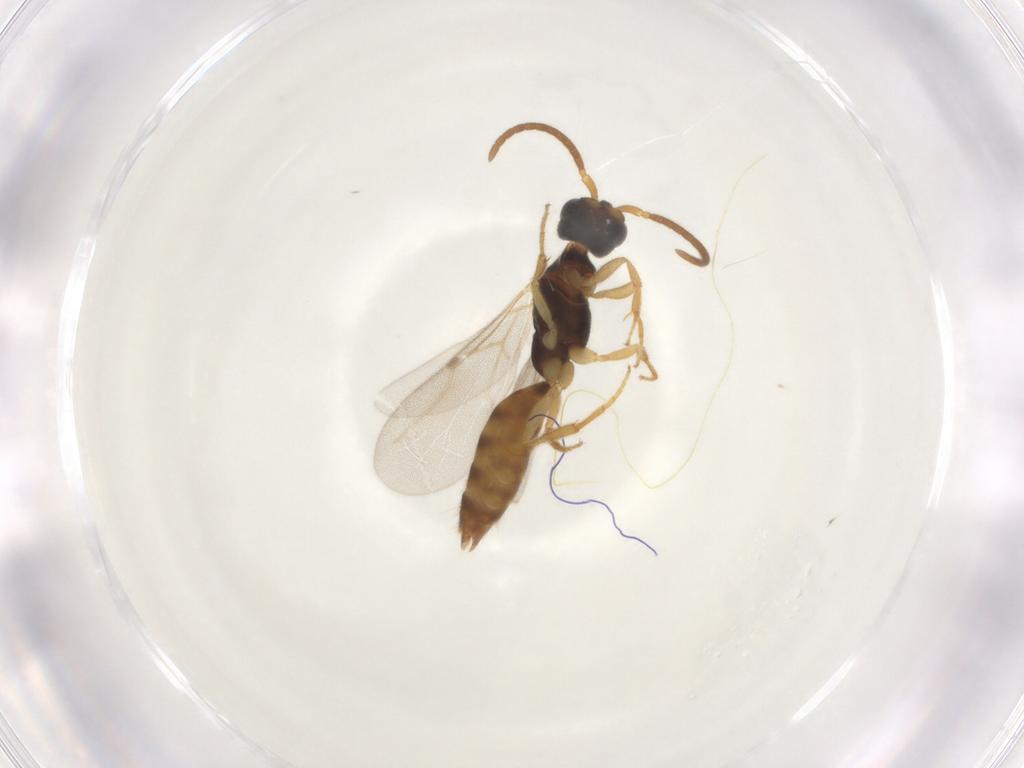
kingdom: Animalia
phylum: Arthropoda
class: Insecta
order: Hymenoptera
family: Bethylidae
